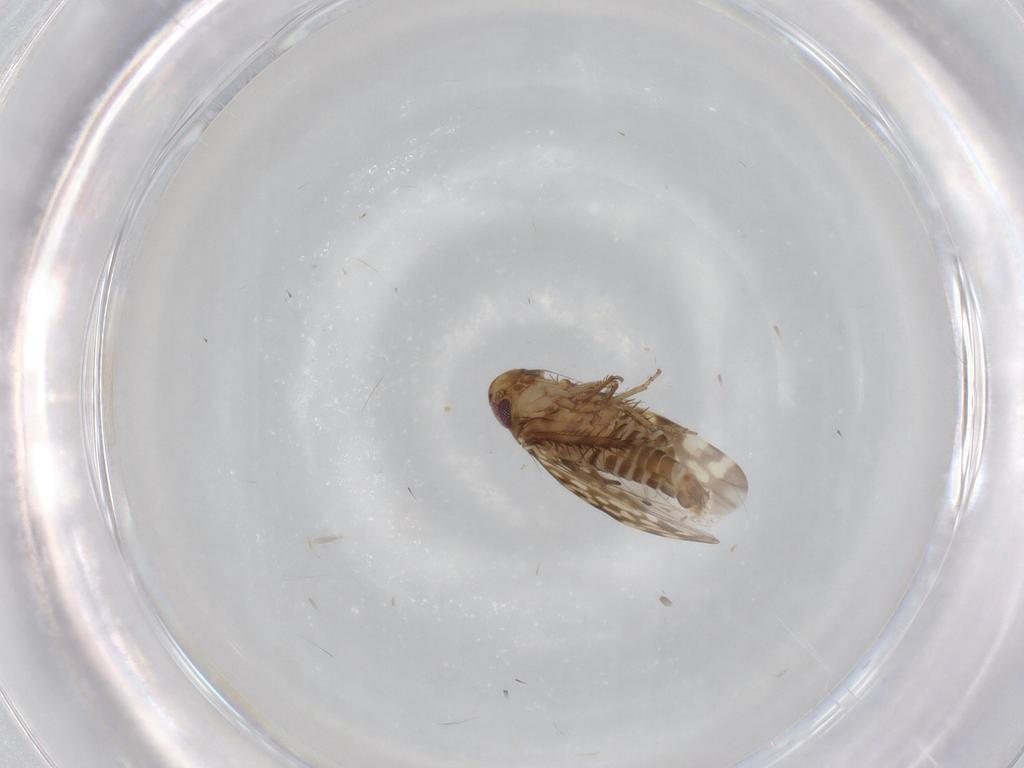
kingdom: Animalia
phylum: Arthropoda
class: Insecta
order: Hemiptera
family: Cicadellidae
